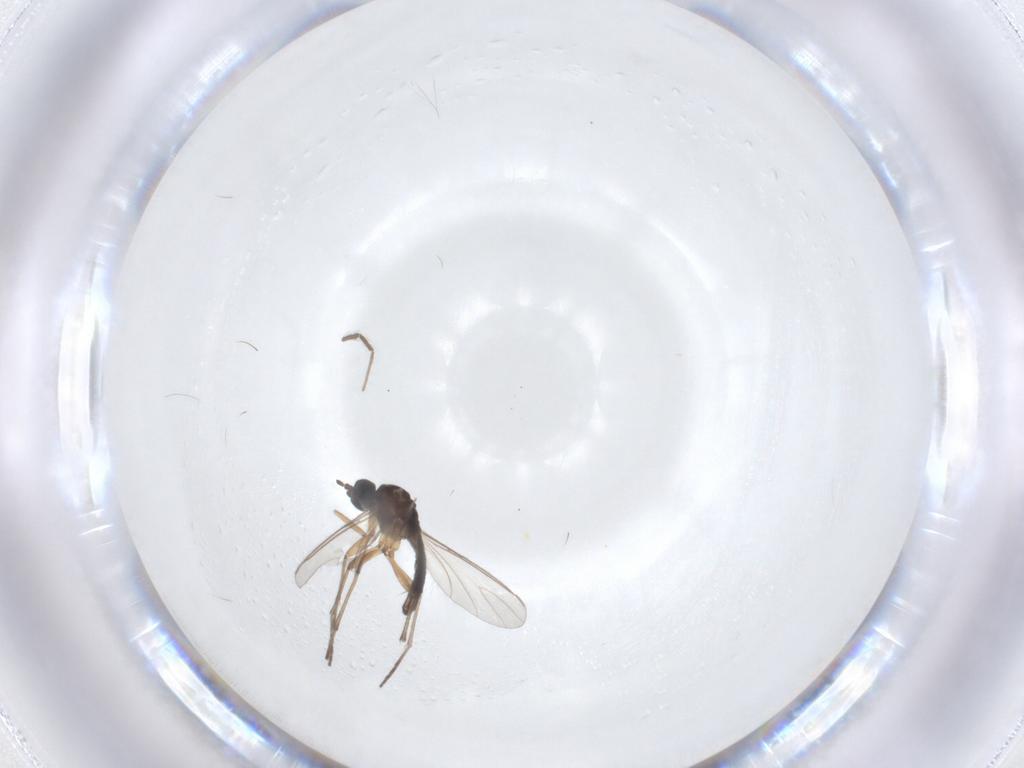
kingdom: Animalia
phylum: Arthropoda
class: Insecta
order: Diptera
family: Chironomidae
